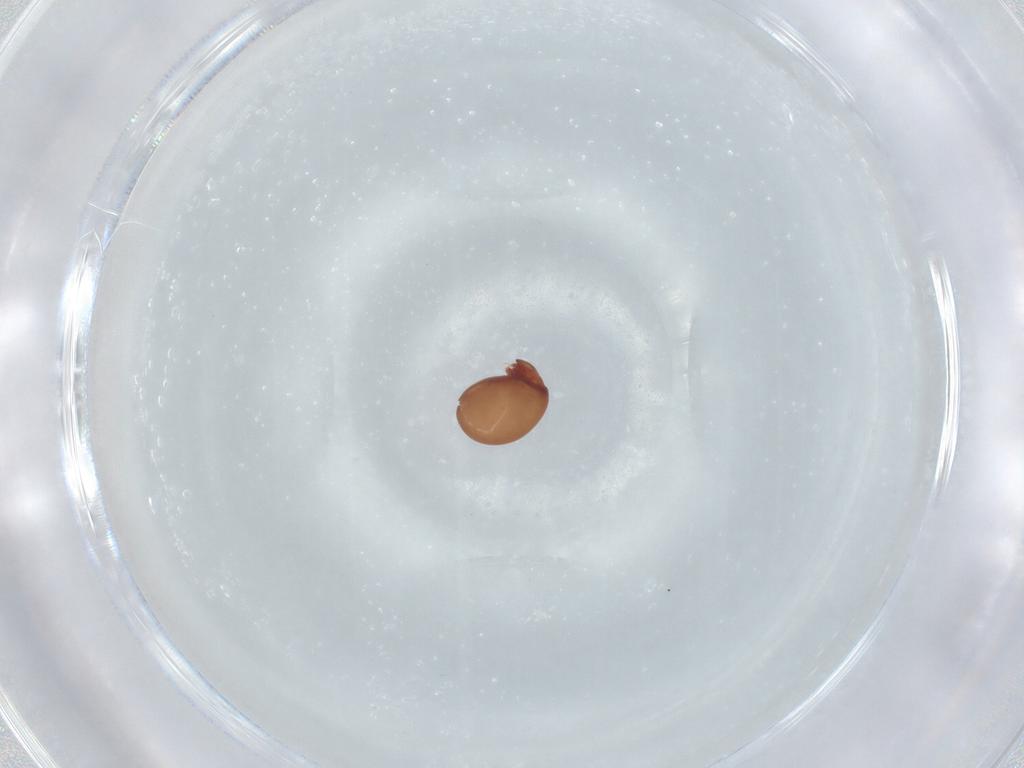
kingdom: Animalia
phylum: Arthropoda
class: Arachnida
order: Sarcoptiformes
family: Phthiracaridae
